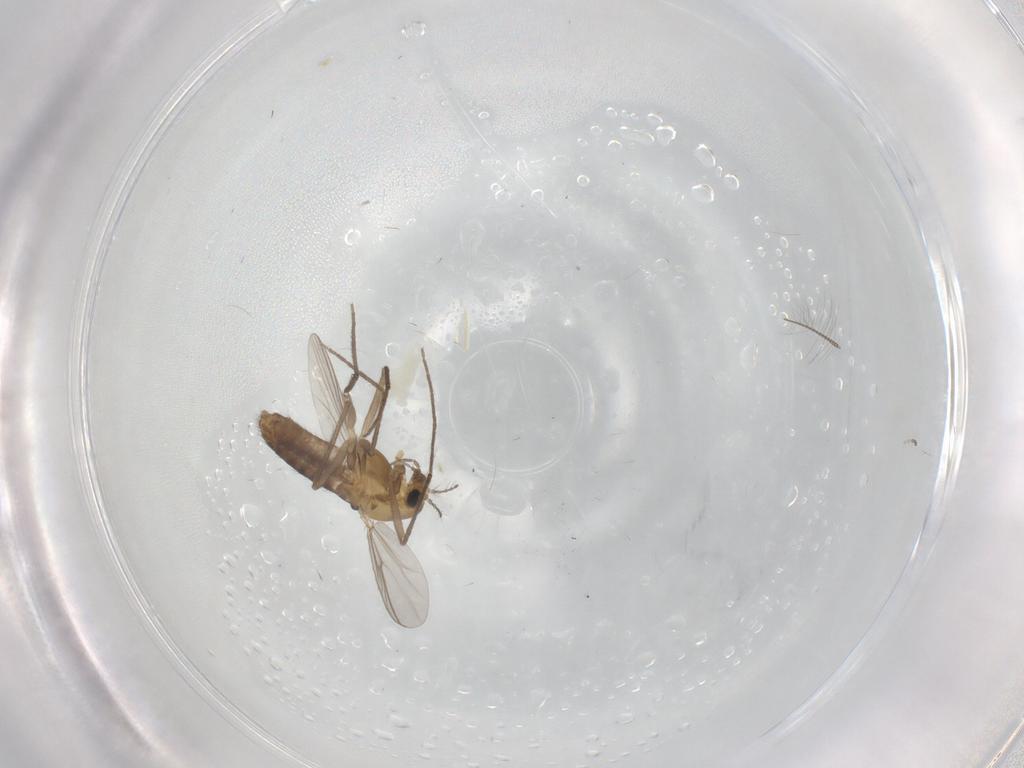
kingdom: Animalia
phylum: Arthropoda
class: Insecta
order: Diptera
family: Chironomidae
